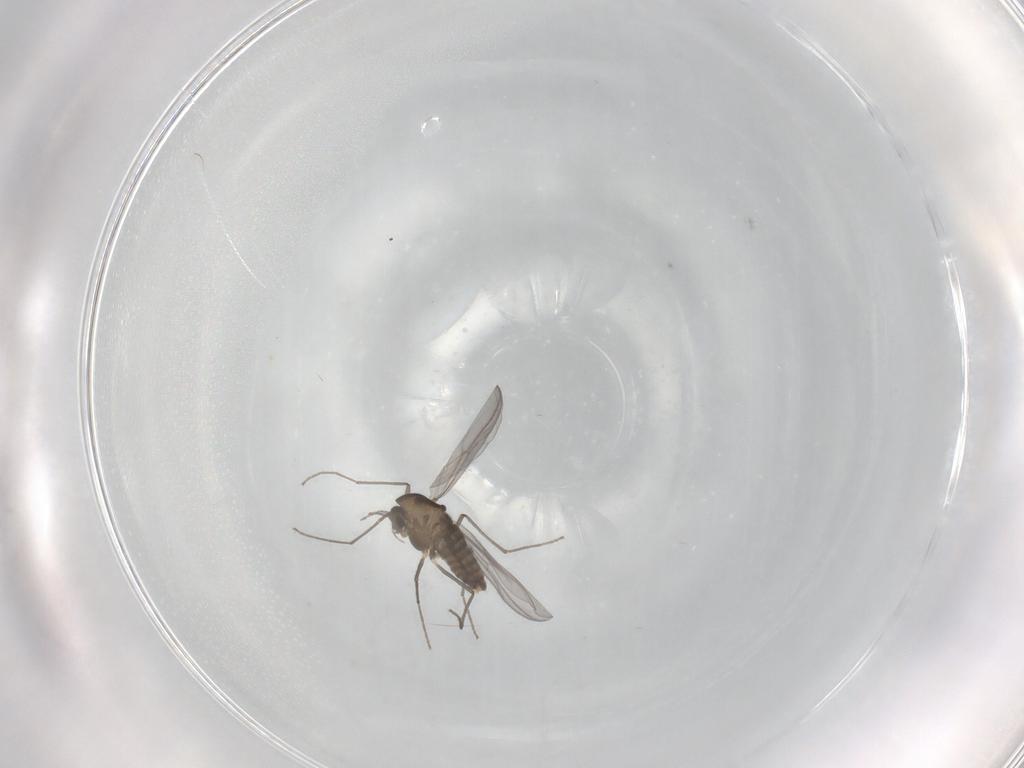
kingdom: Animalia
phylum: Arthropoda
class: Insecta
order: Diptera
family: Chironomidae
